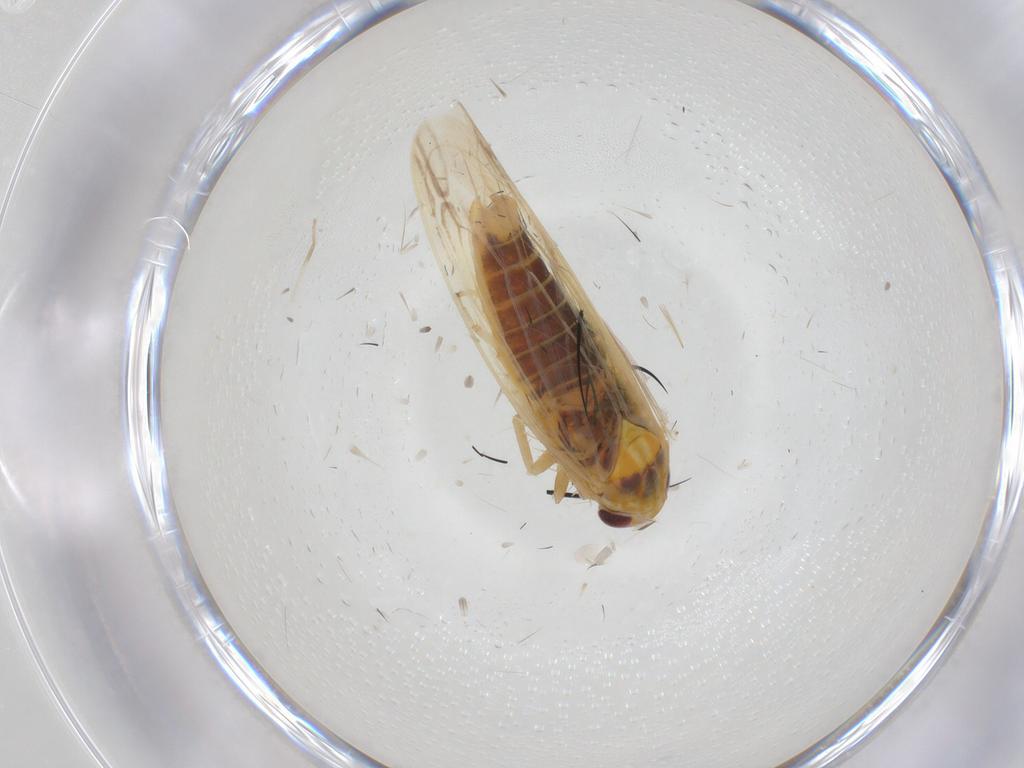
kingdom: Animalia
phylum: Arthropoda
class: Insecta
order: Hemiptera
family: Cicadellidae
